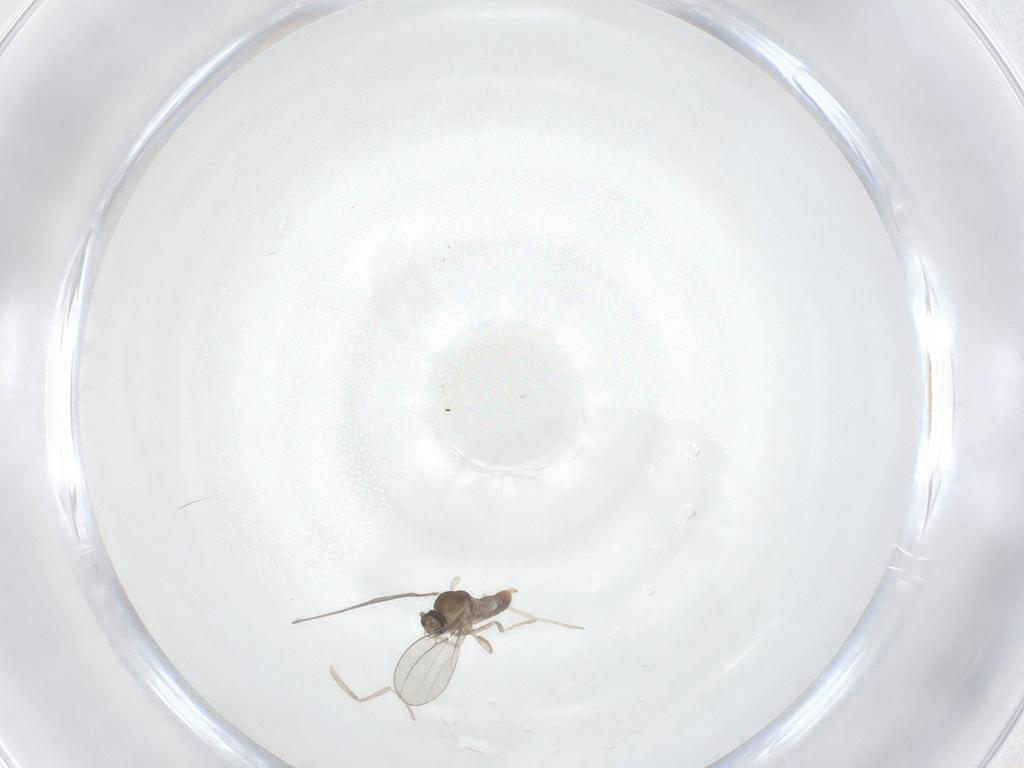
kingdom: Animalia
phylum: Arthropoda
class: Insecta
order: Diptera
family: Cecidomyiidae
